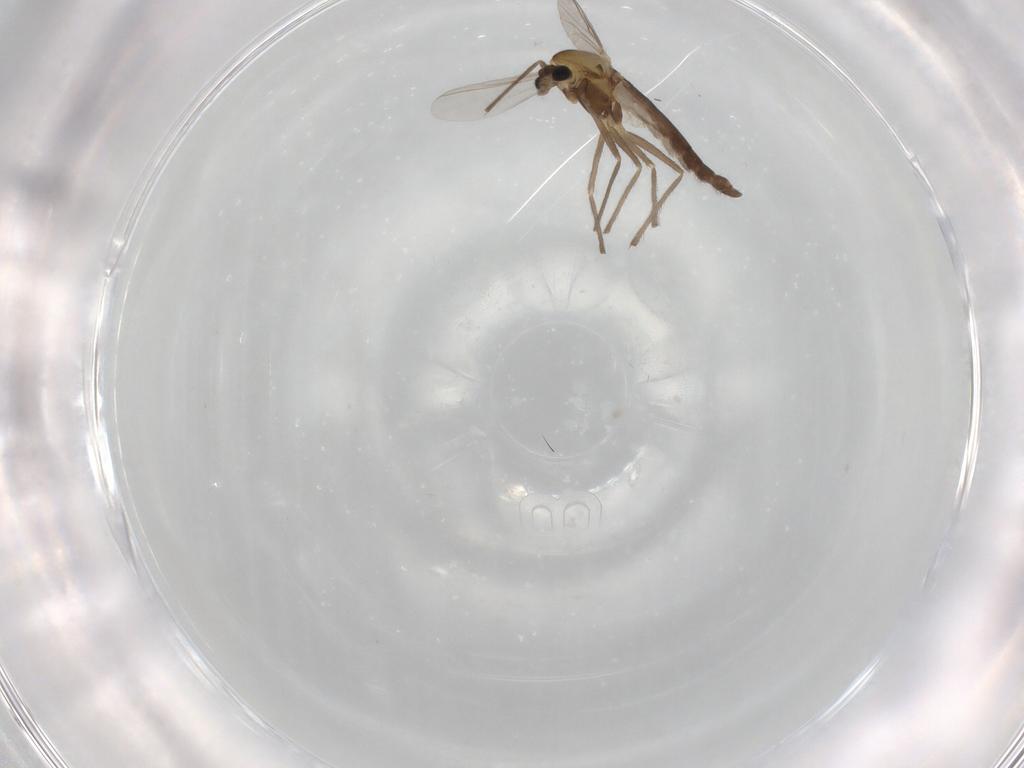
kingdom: Animalia
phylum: Arthropoda
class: Insecta
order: Diptera
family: Chironomidae
